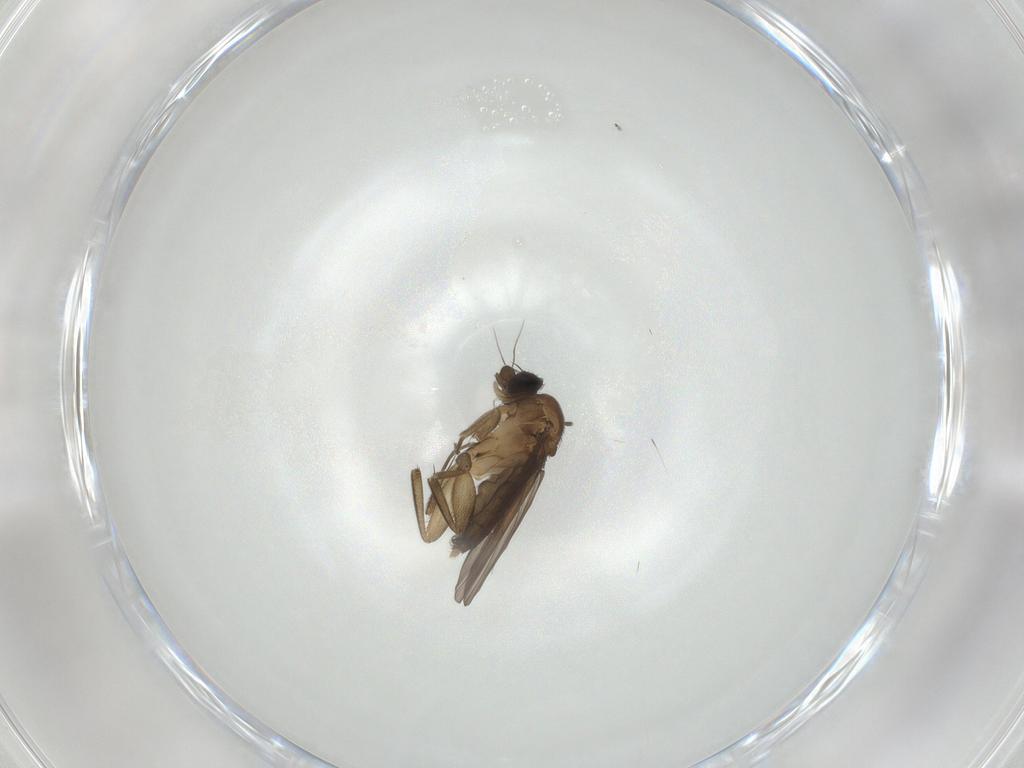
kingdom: Animalia
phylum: Arthropoda
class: Insecta
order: Diptera
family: Phoridae
